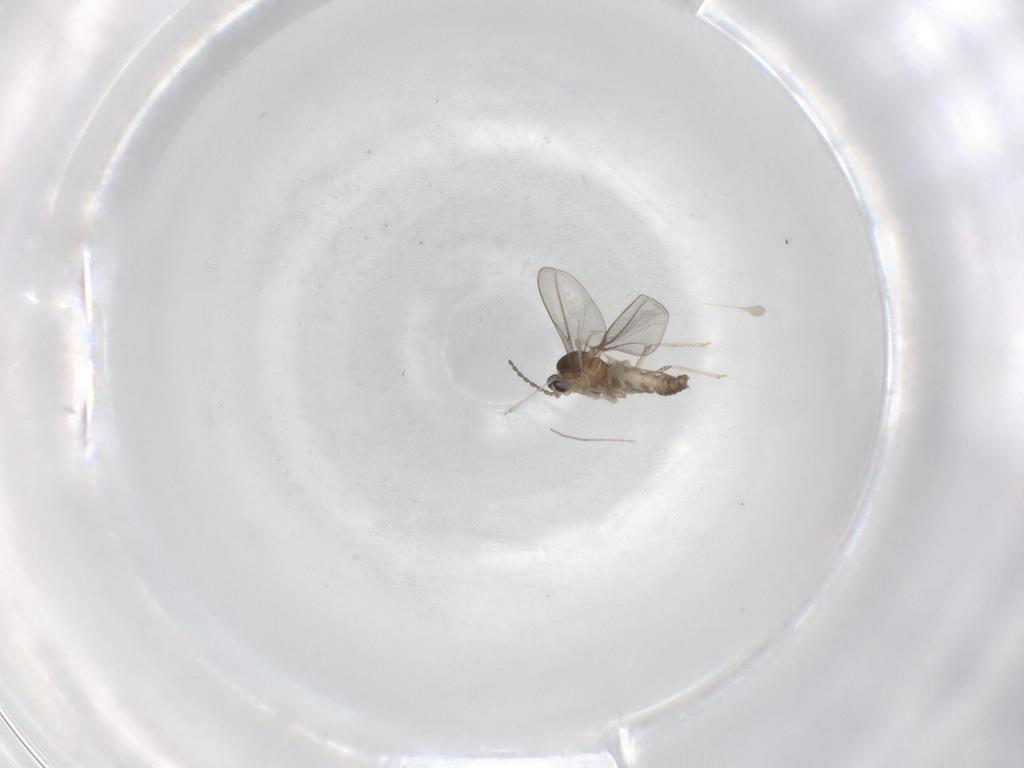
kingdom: Animalia
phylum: Arthropoda
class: Insecta
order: Diptera
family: Cecidomyiidae
